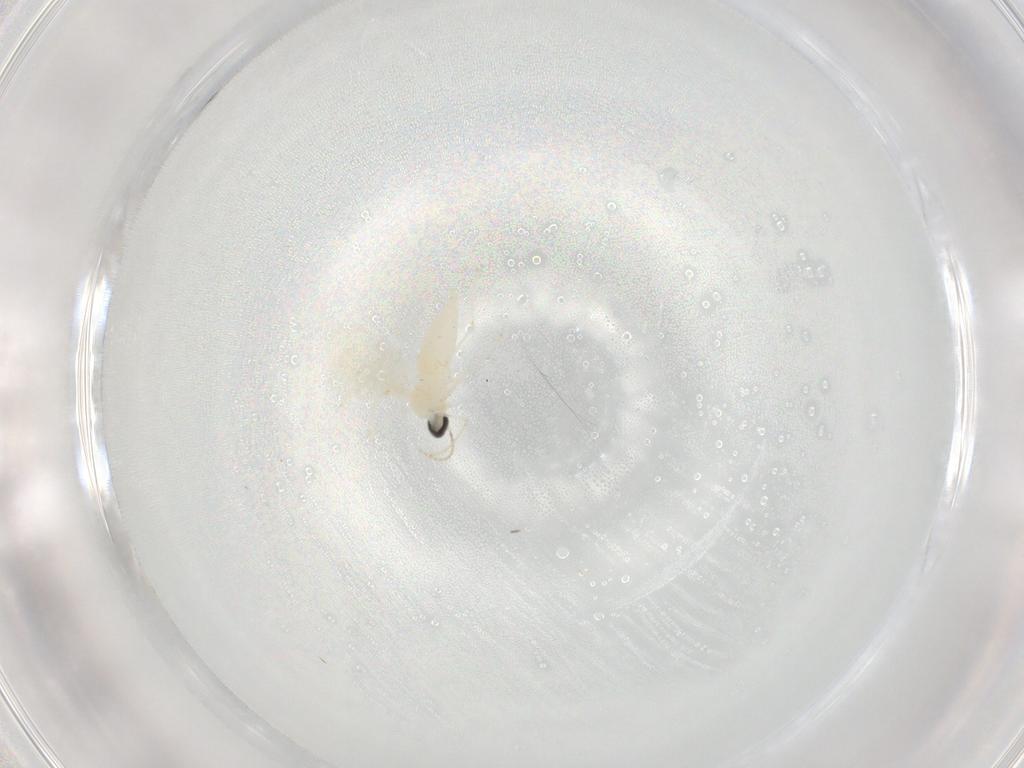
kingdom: Animalia
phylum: Arthropoda
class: Insecta
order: Diptera
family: Cecidomyiidae
